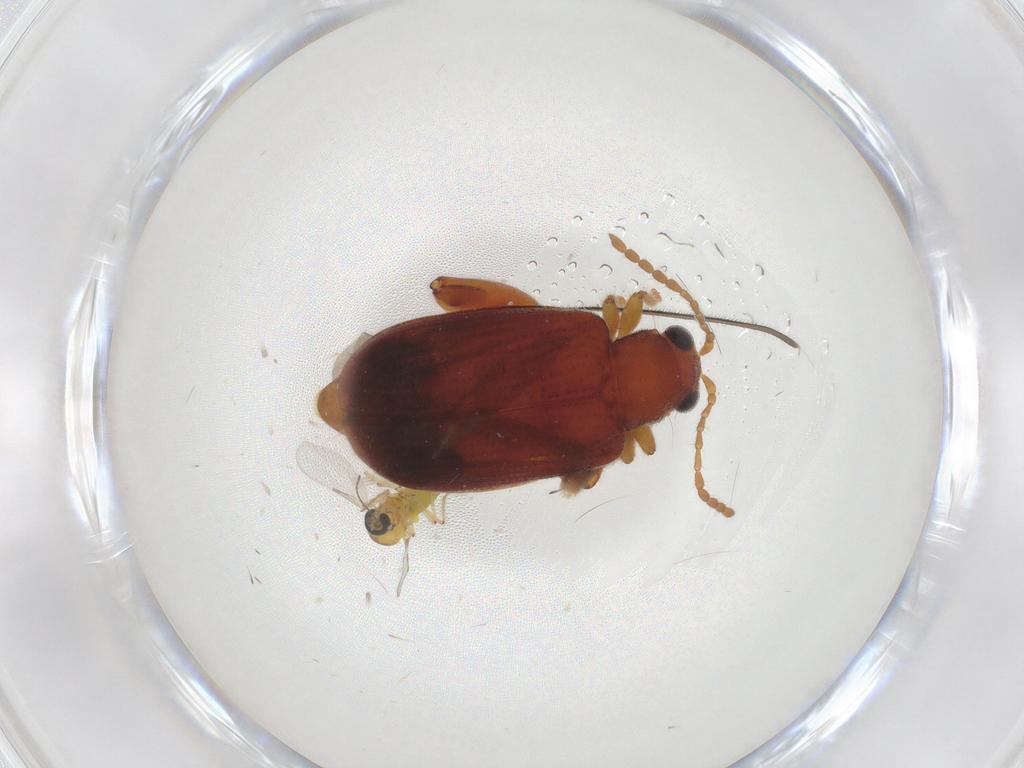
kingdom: Animalia
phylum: Arthropoda
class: Insecta
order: Coleoptera
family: Chrysomelidae
